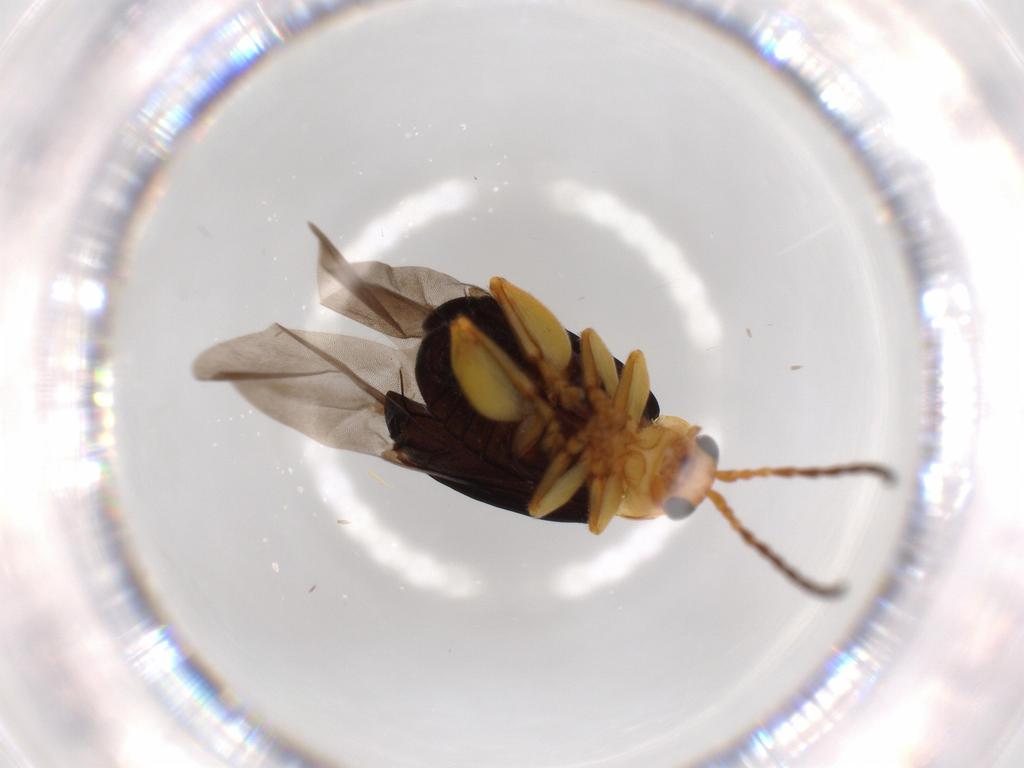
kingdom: Animalia
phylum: Arthropoda
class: Insecta
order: Coleoptera
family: Chrysomelidae
